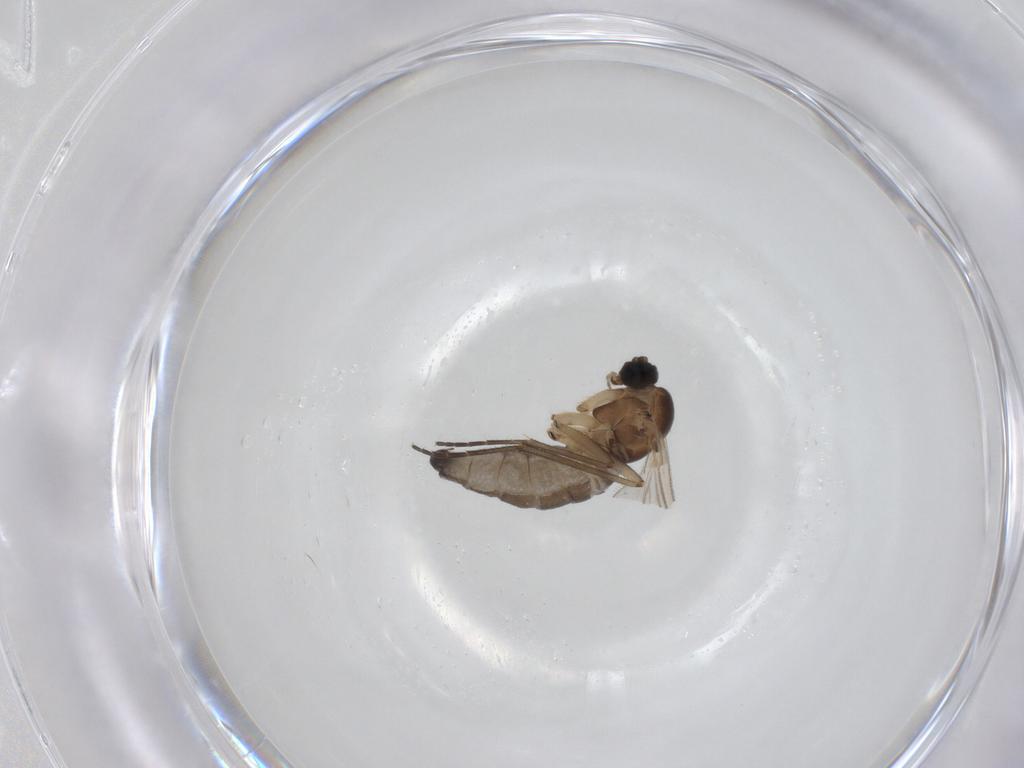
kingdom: Animalia
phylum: Arthropoda
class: Insecta
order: Diptera
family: Sciaridae
